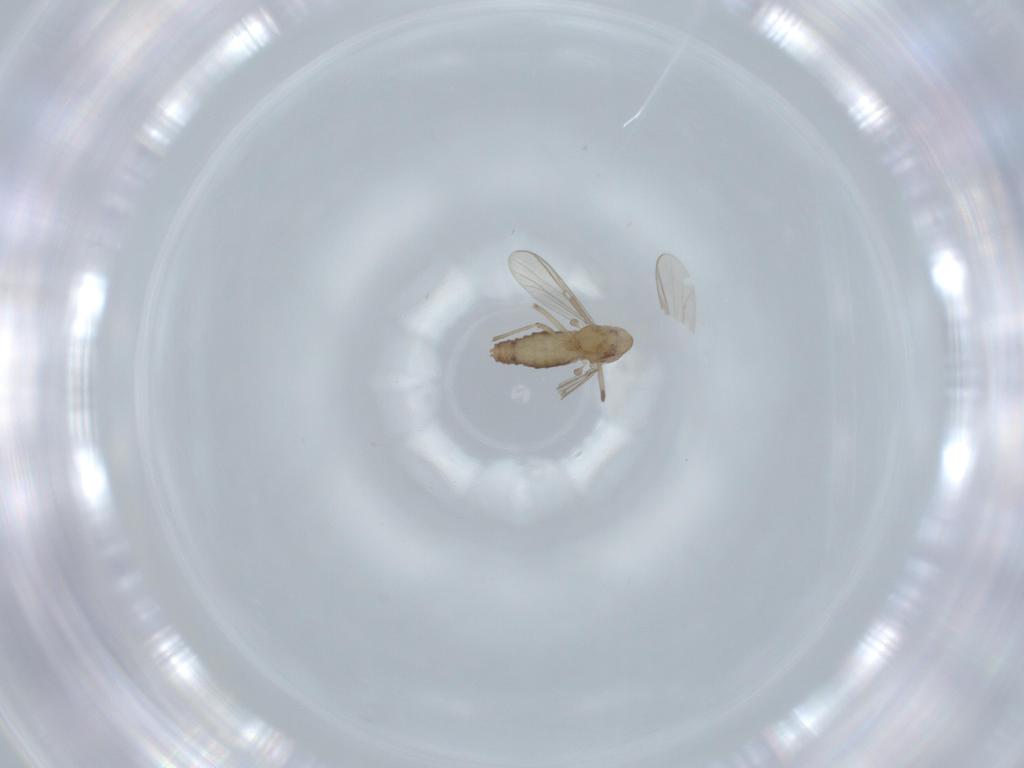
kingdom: Animalia
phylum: Arthropoda
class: Insecta
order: Diptera
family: Chironomidae
